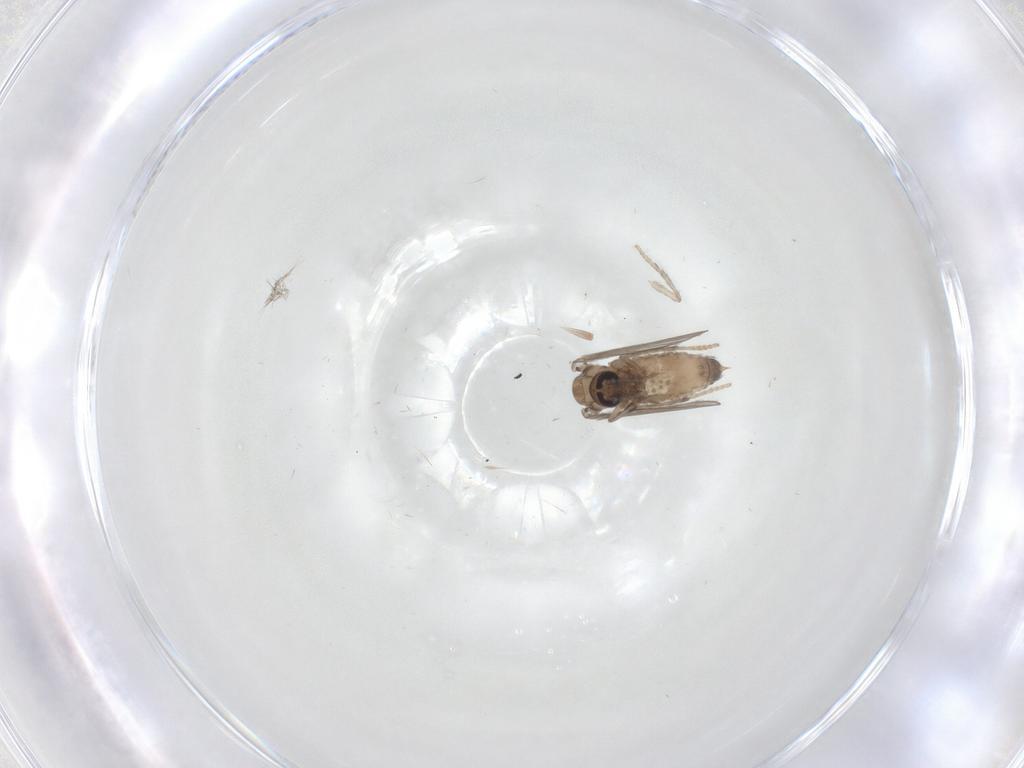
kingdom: Animalia
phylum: Arthropoda
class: Insecta
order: Diptera
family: Psychodidae
